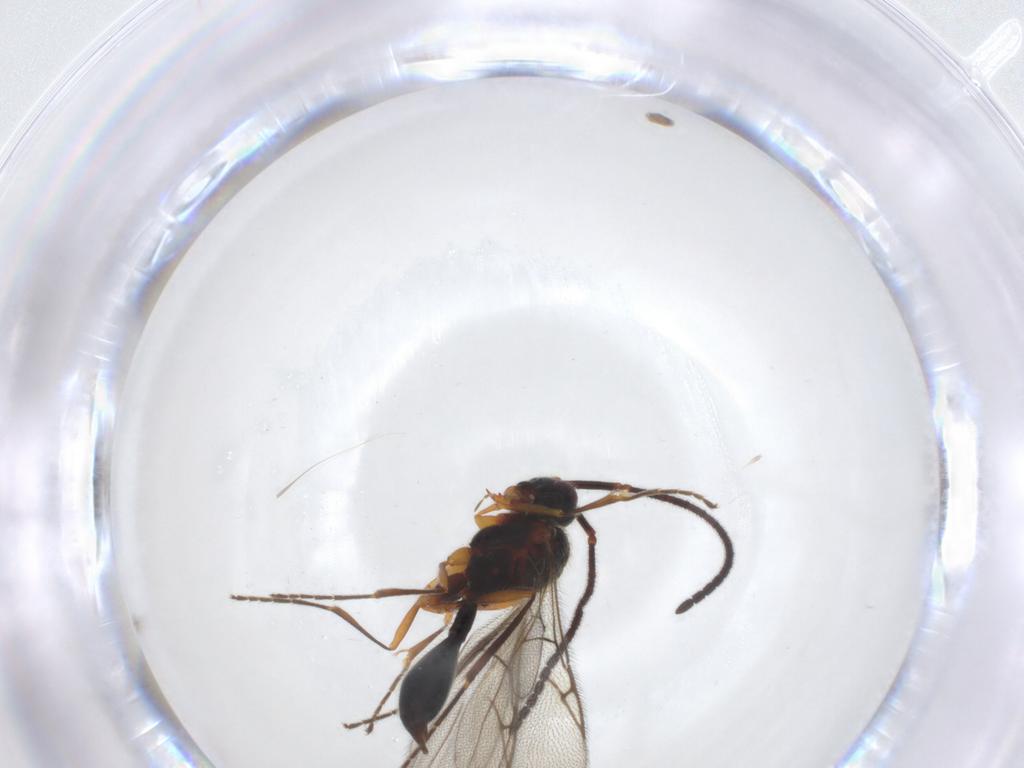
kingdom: Animalia
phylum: Arthropoda
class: Insecta
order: Hymenoptera
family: Diapriidae
